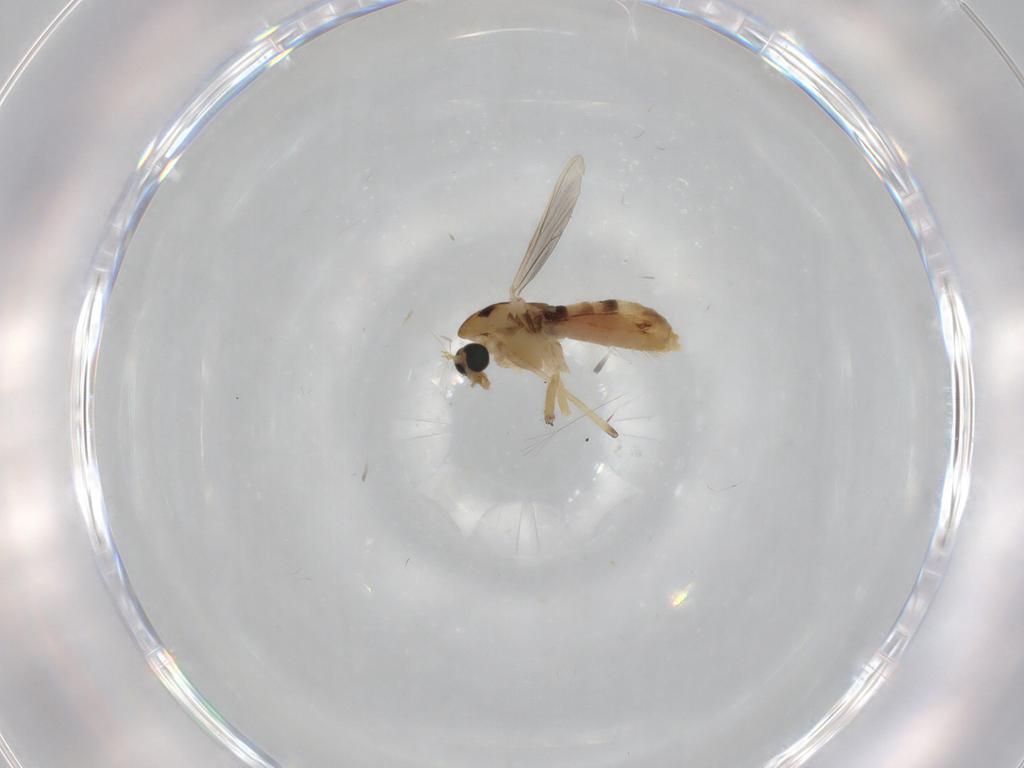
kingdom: Animalia
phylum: Arthropoda
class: Insecta
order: Diptera
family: Chironomidae
